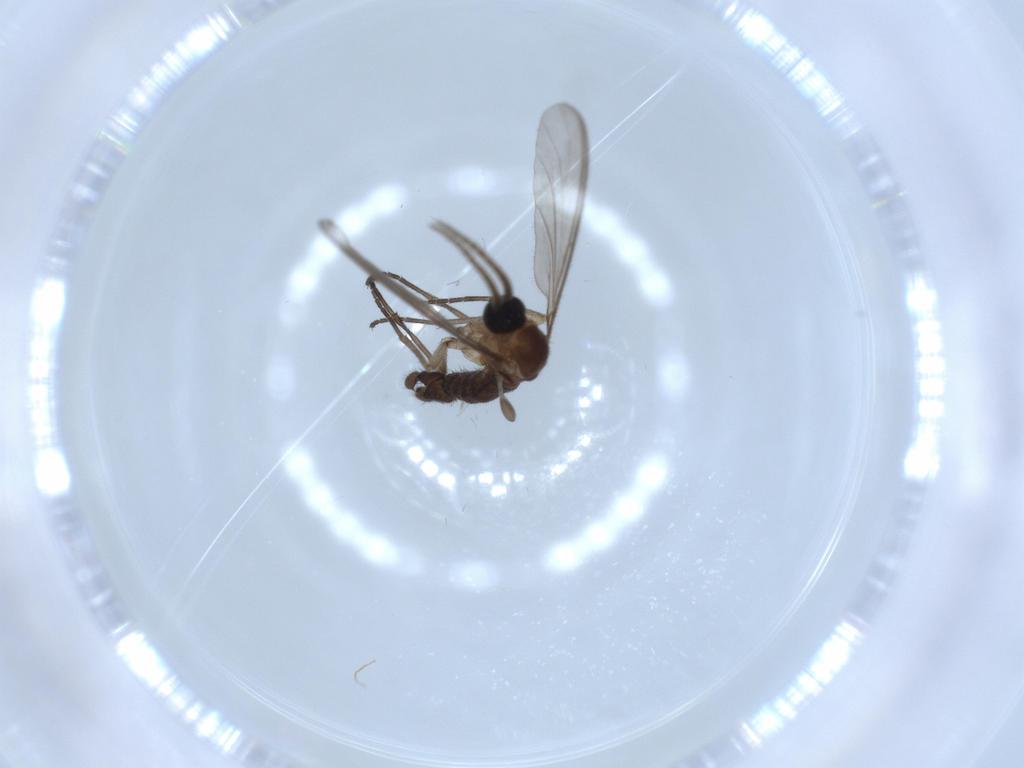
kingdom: Animalia
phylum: Arthropoda
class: Insecta
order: Diptera
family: Sciaridae
